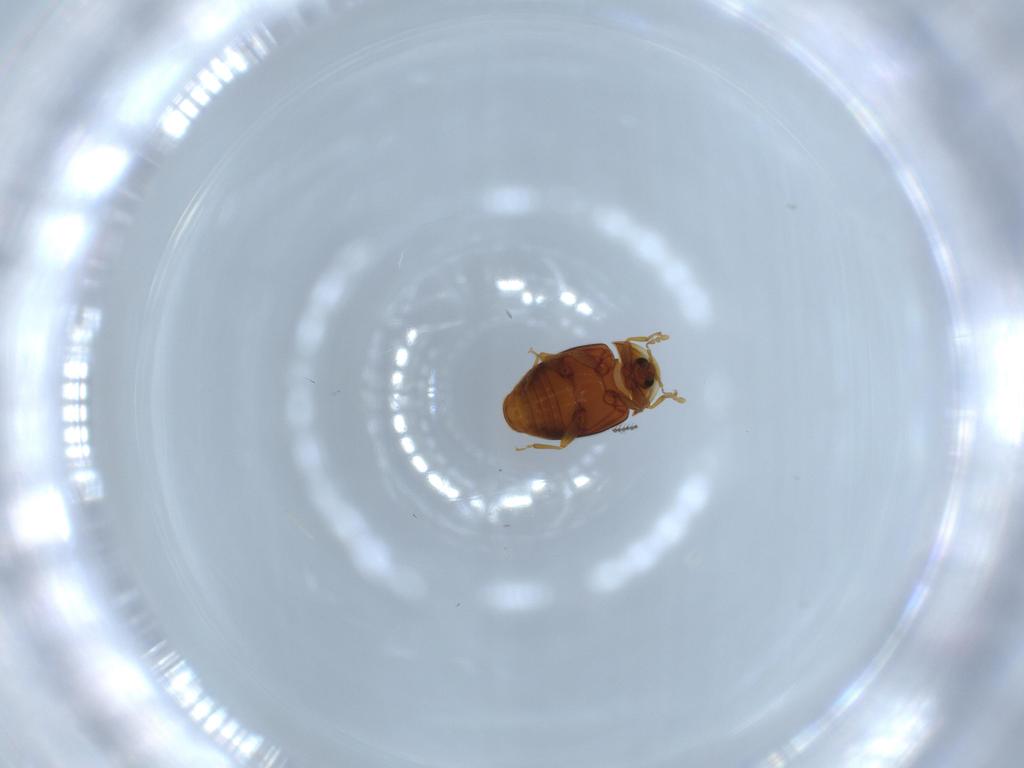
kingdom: Animalia
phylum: Arthropoda
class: Insecta
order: Coleoptera
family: Corylophidae
